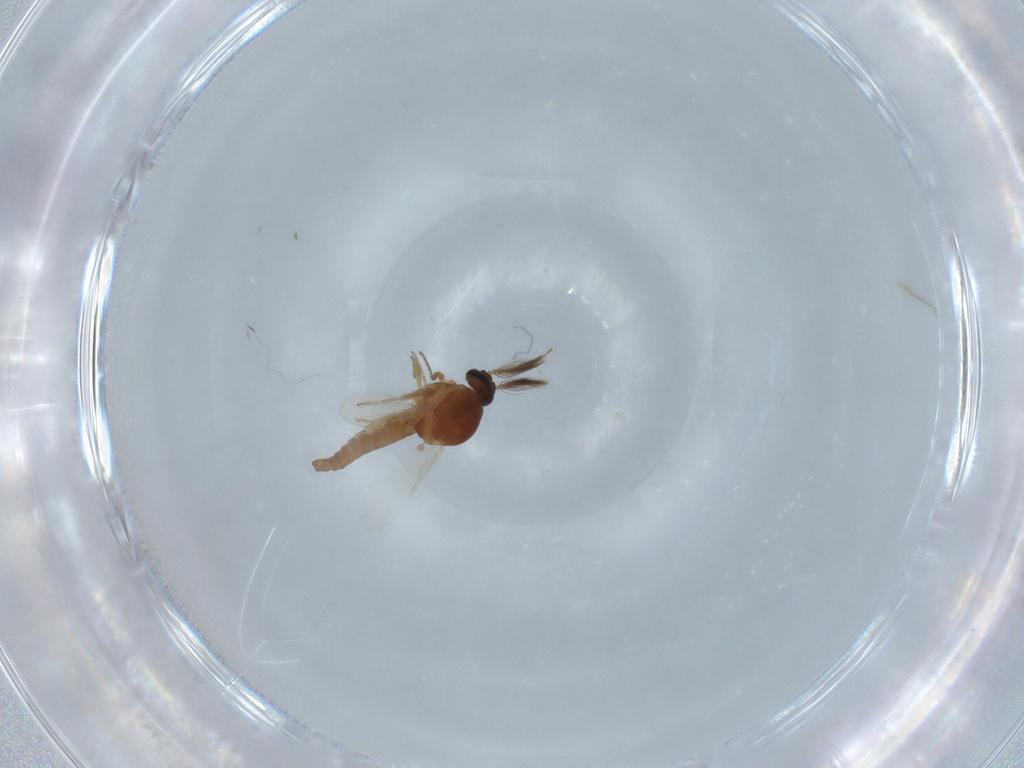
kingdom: Animalia
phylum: Arthropoda
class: Insecta
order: Diptera
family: Ceratopogonidae
